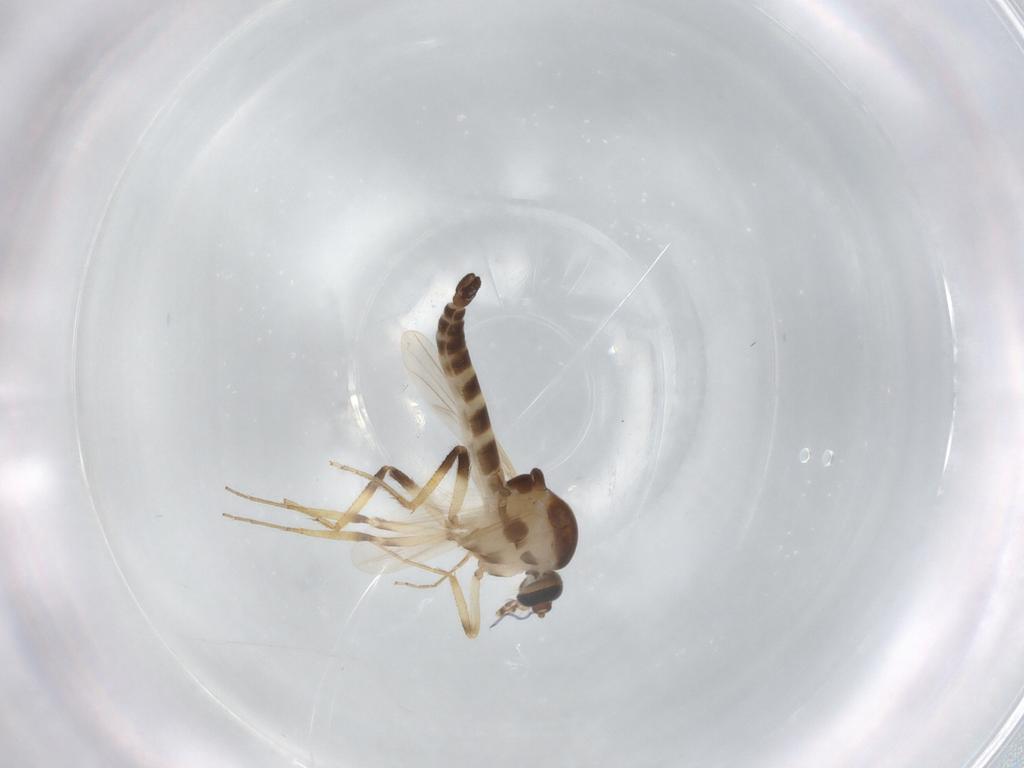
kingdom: Animalia
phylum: Arthropoda
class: Insecta
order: Diptera
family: Ceratopogonidae
